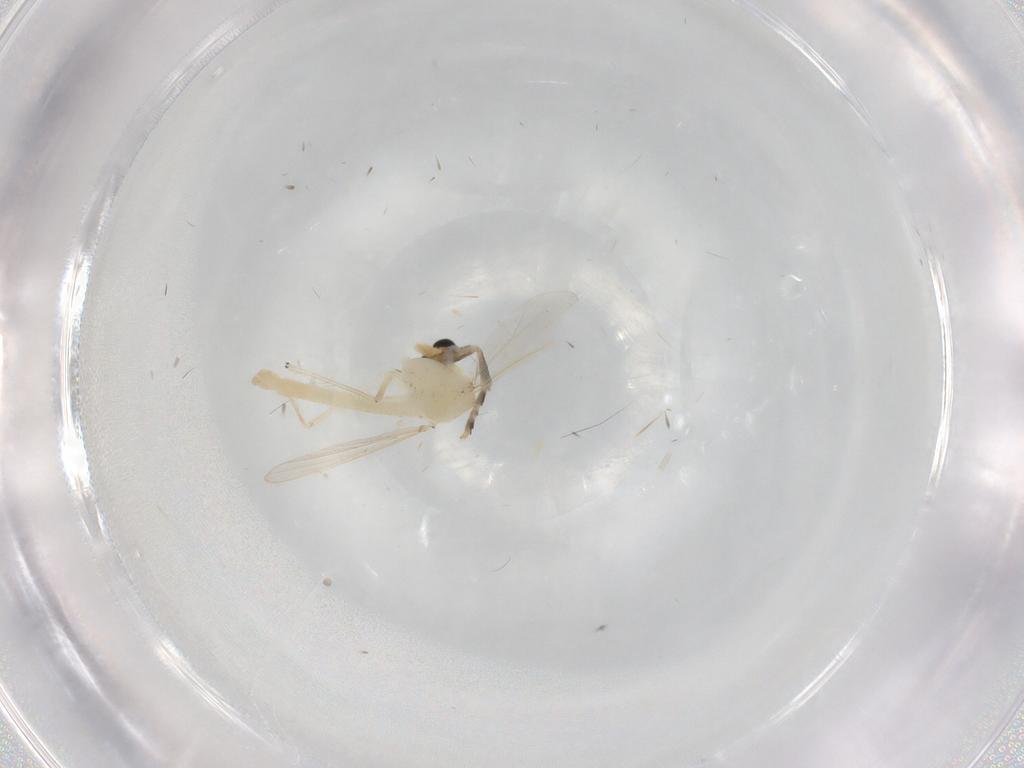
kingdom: Animalia
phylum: Arthropoda
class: Insecta
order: Diptera
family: Chironomidae
